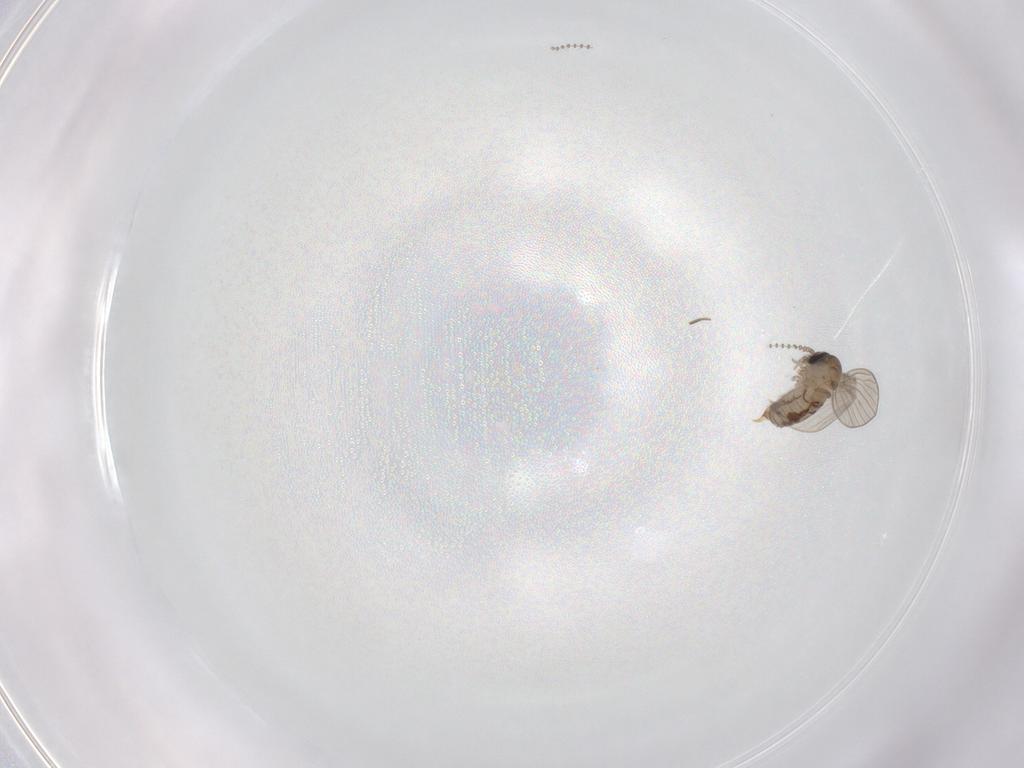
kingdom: Animalia
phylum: Arthropoda
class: Insecta
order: Diptera
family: Psychodidae
